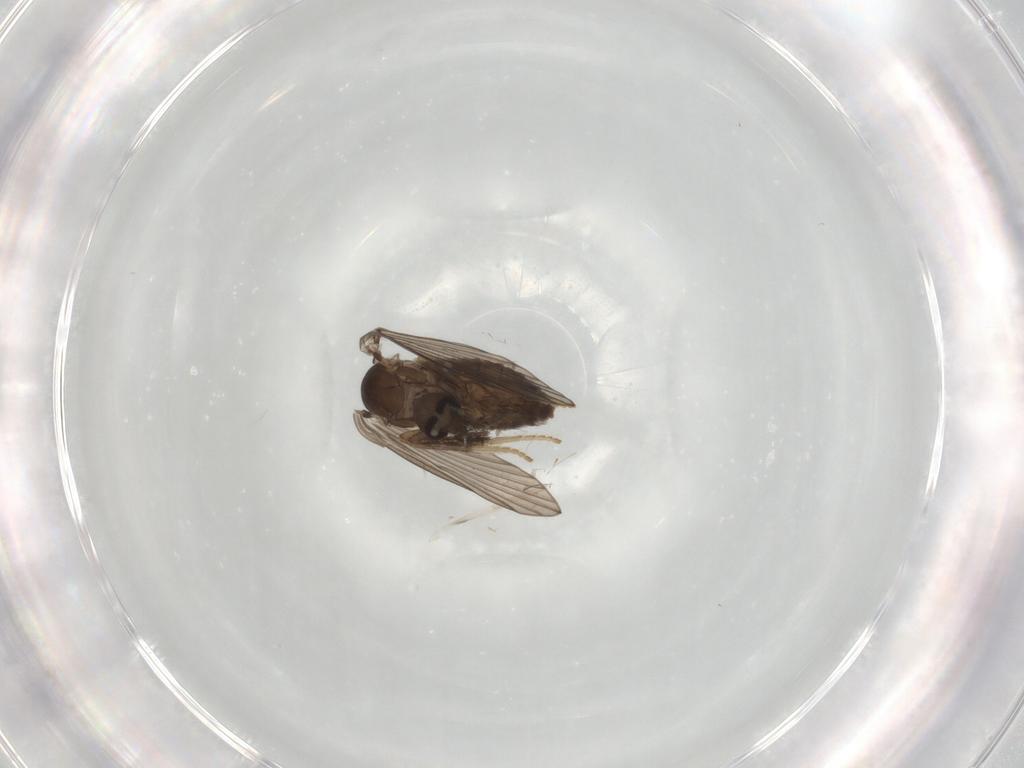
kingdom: Animalia
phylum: Arthropoda
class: Insecta
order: Diptera
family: Psychodidae
